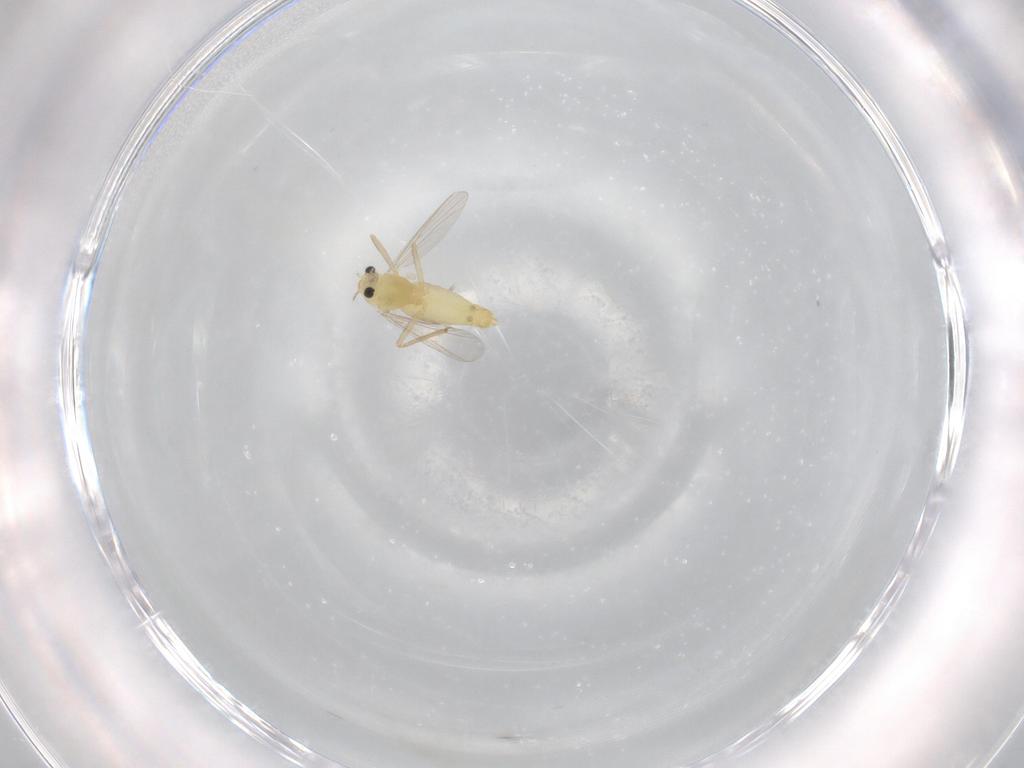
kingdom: Animalia
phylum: Arthropoda
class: Insecta
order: Diptera
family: Chironomidae
